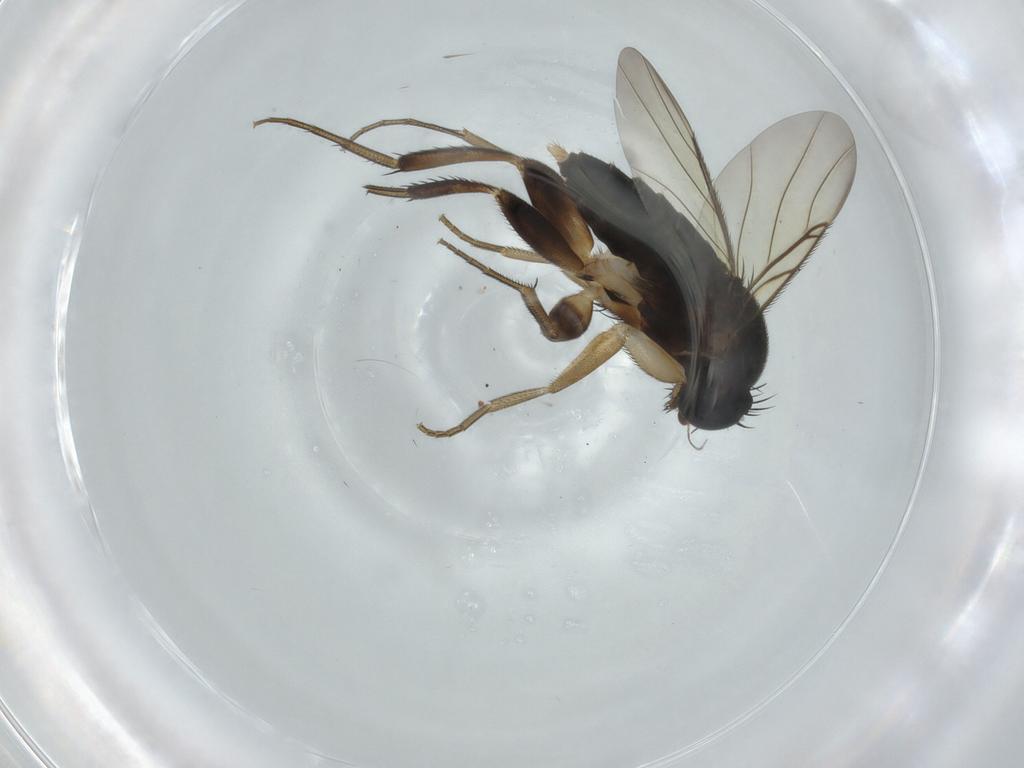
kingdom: Animalia
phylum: Arthropoda
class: Insecta
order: Diptera
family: Phoridae
